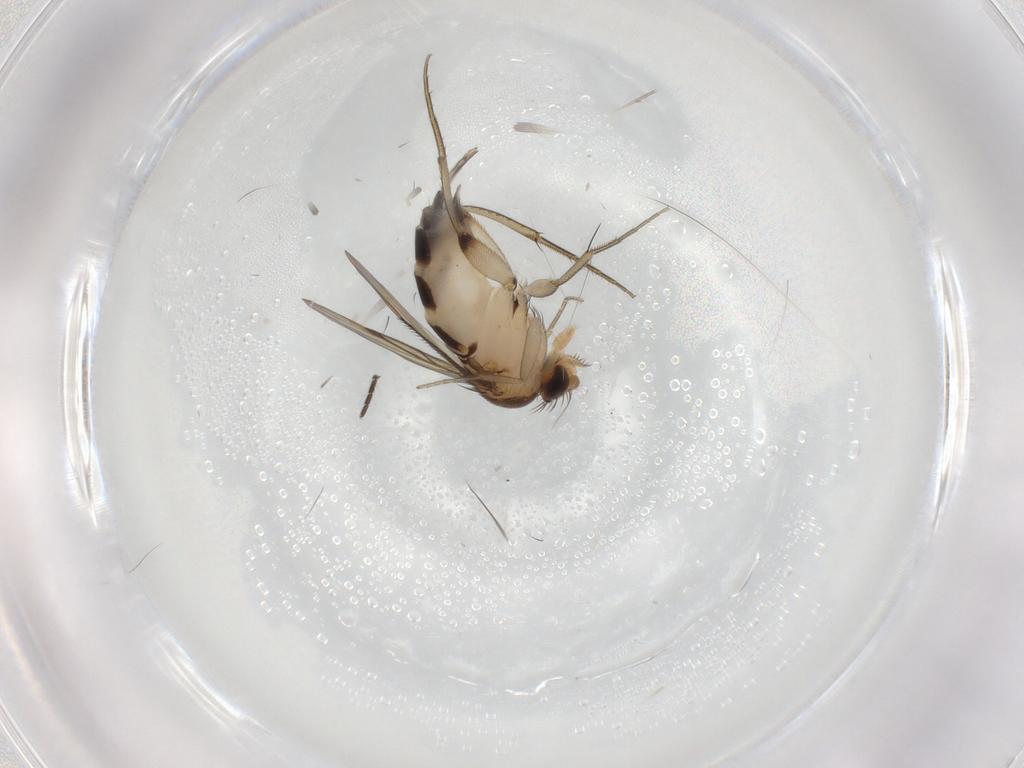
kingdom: Animalia
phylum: Arthropoda
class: Insecta
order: Diptera
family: Phoridae
